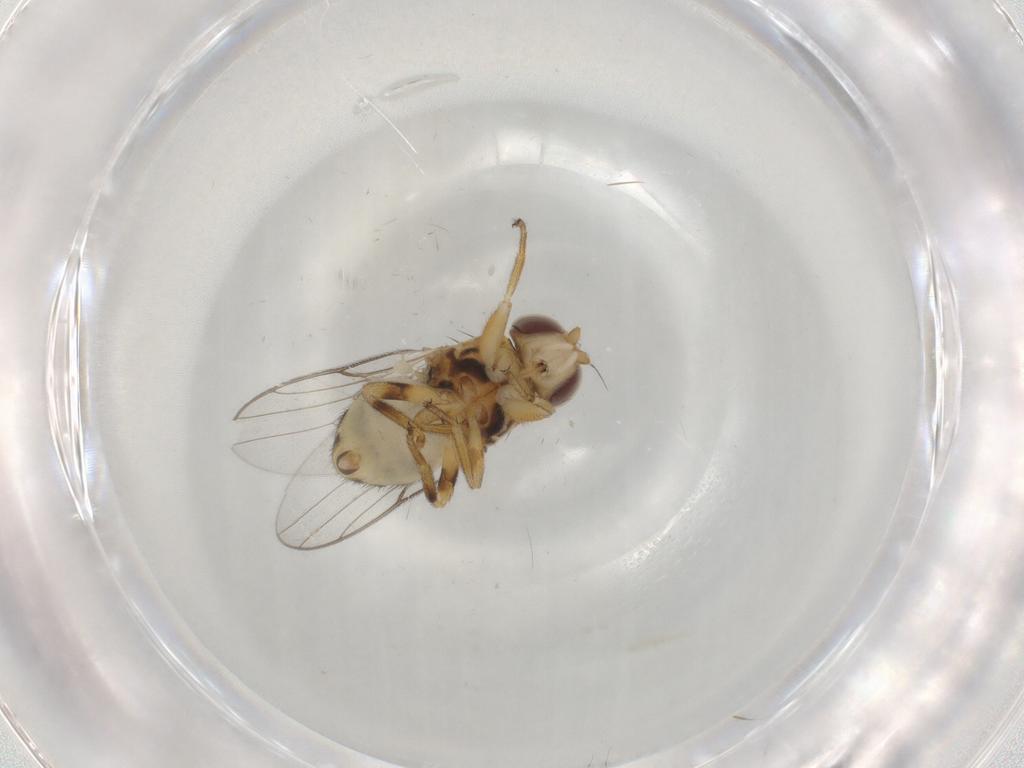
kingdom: Animalia
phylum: Arthropoda
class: Insecta
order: Diptera
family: Chloropidae
